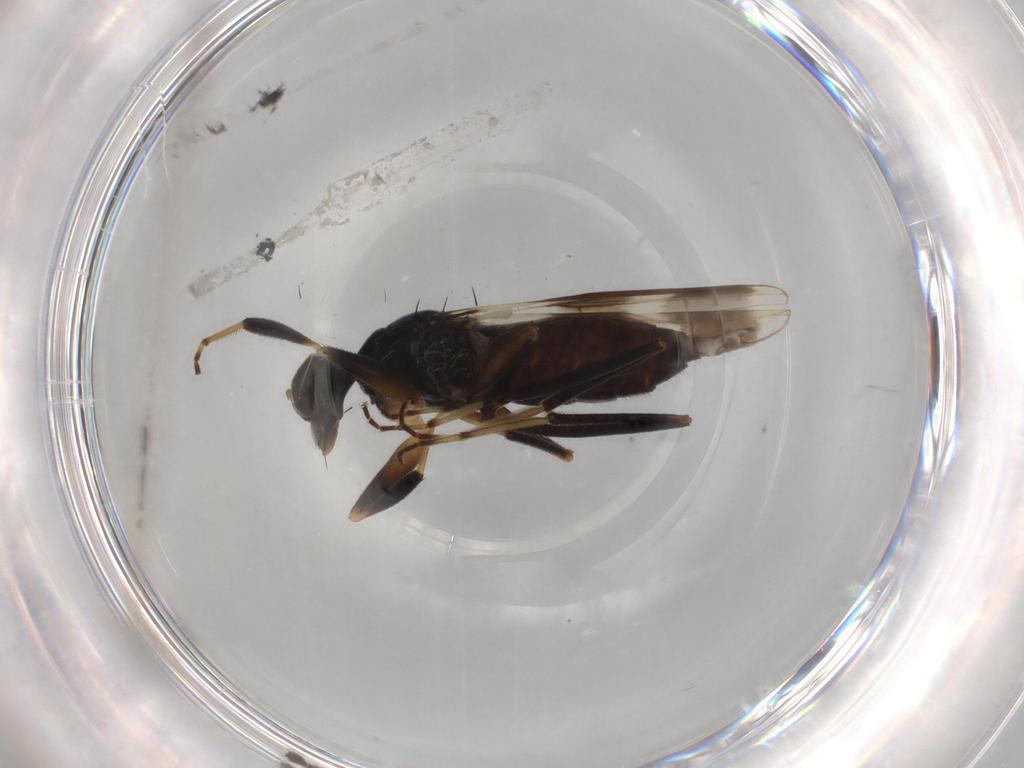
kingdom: Animalia
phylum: Arthropoda
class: Insecta
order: Diptera
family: Hybotidae
